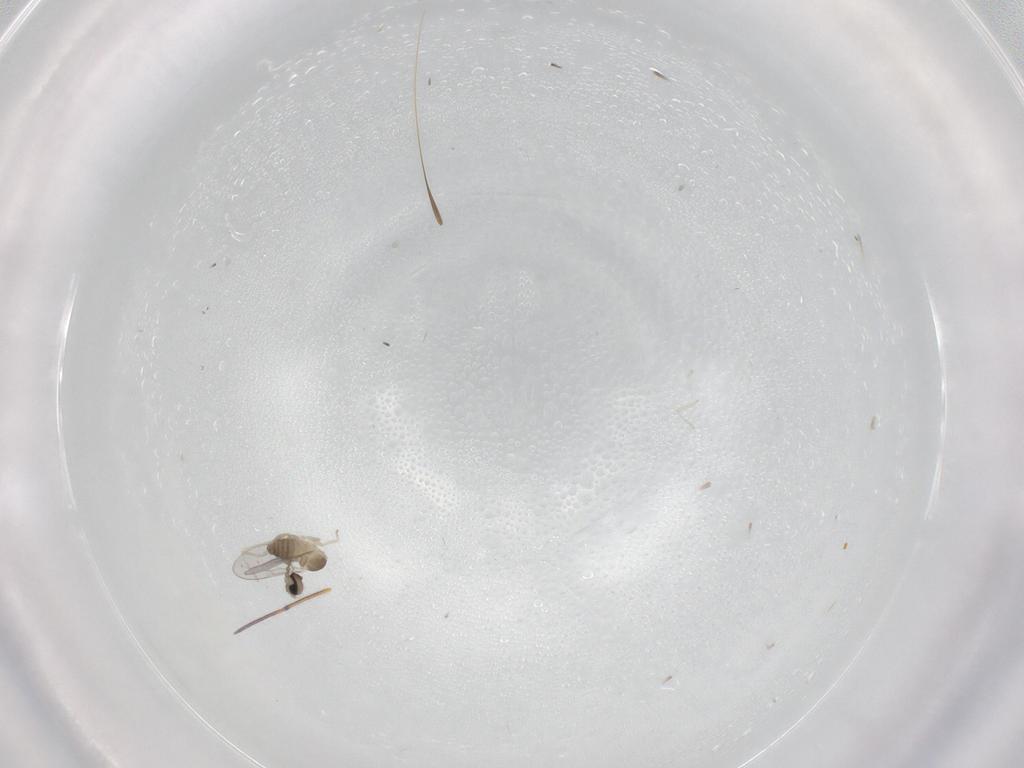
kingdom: Animalia
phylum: Arthropoda
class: Insecta
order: Diptera
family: Cecidomyiidae
